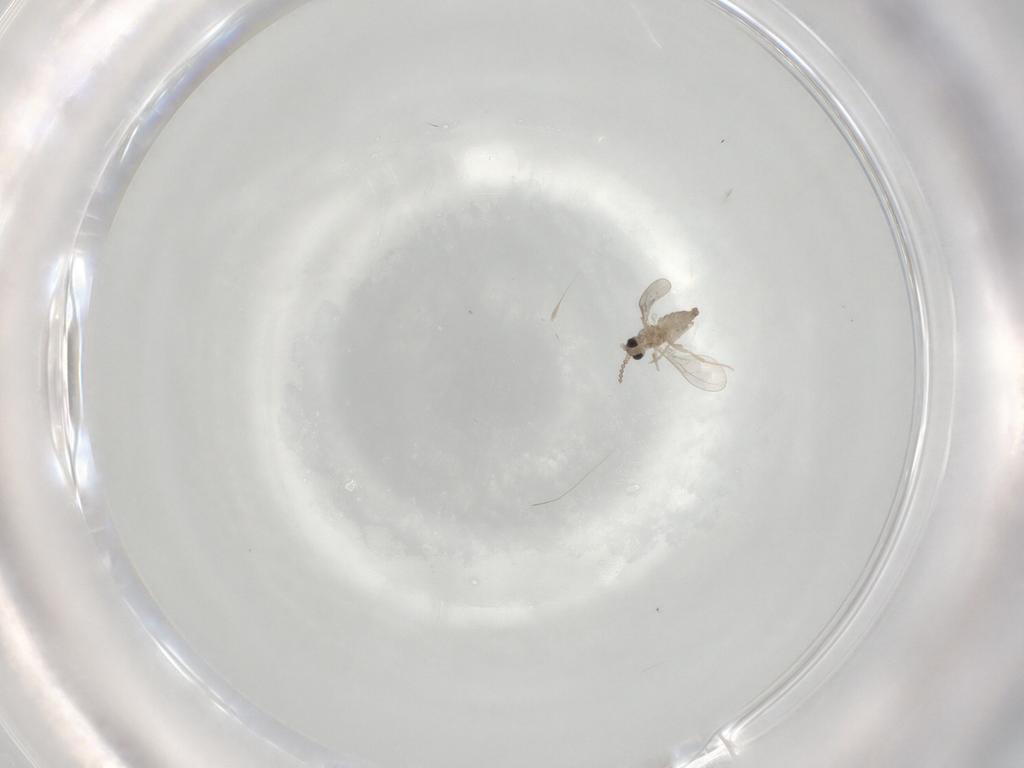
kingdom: Animalia
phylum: Arthropoda
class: Insecta
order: Diptera
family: Cecidomyiidae
